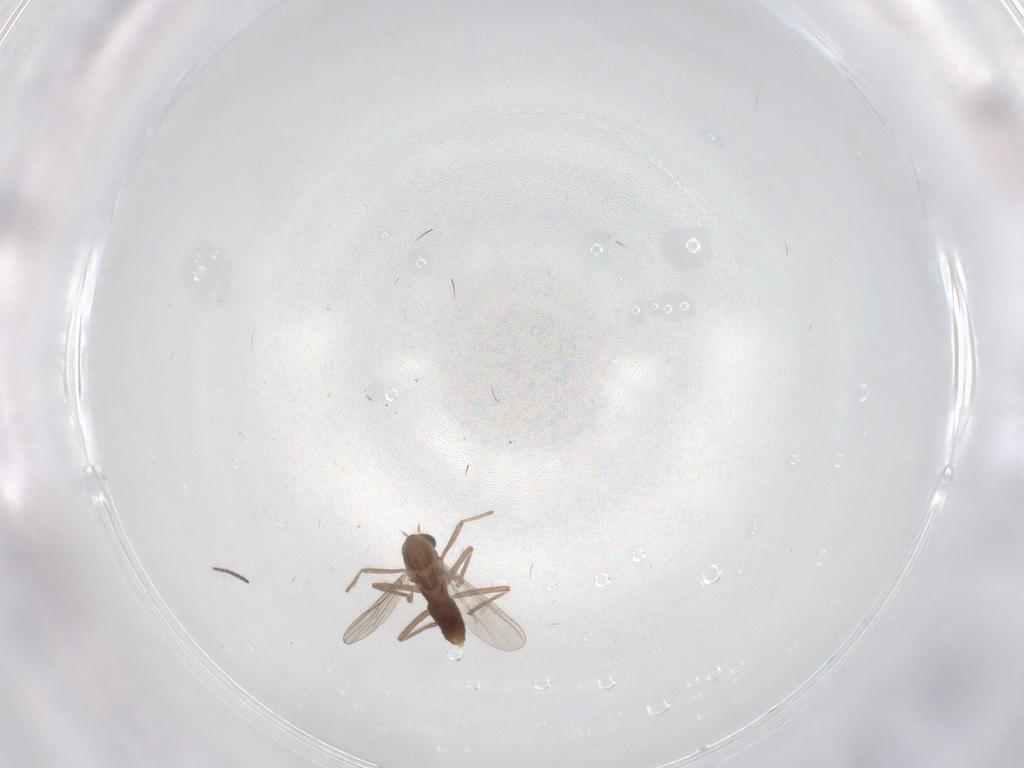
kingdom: Animalia
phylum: Arthropoda
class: Insecta
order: Diptera
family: Chironomidae
